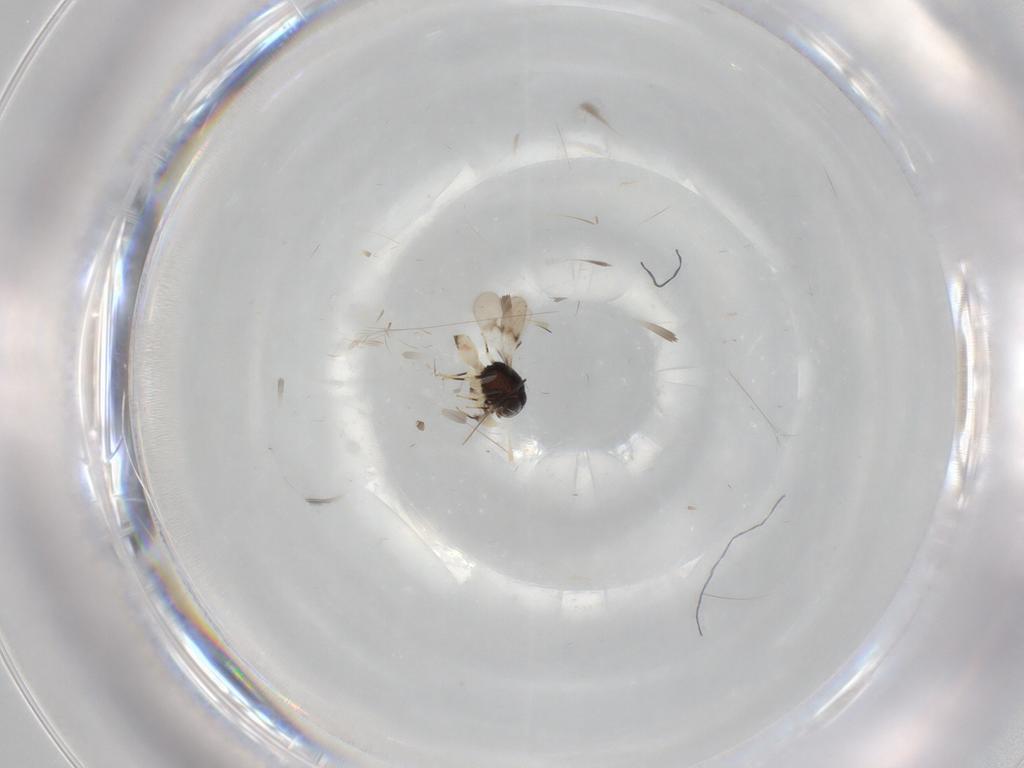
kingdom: Animalia
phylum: Arthropoda
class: Insecta
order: Hymenoptera
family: Scelionidae
